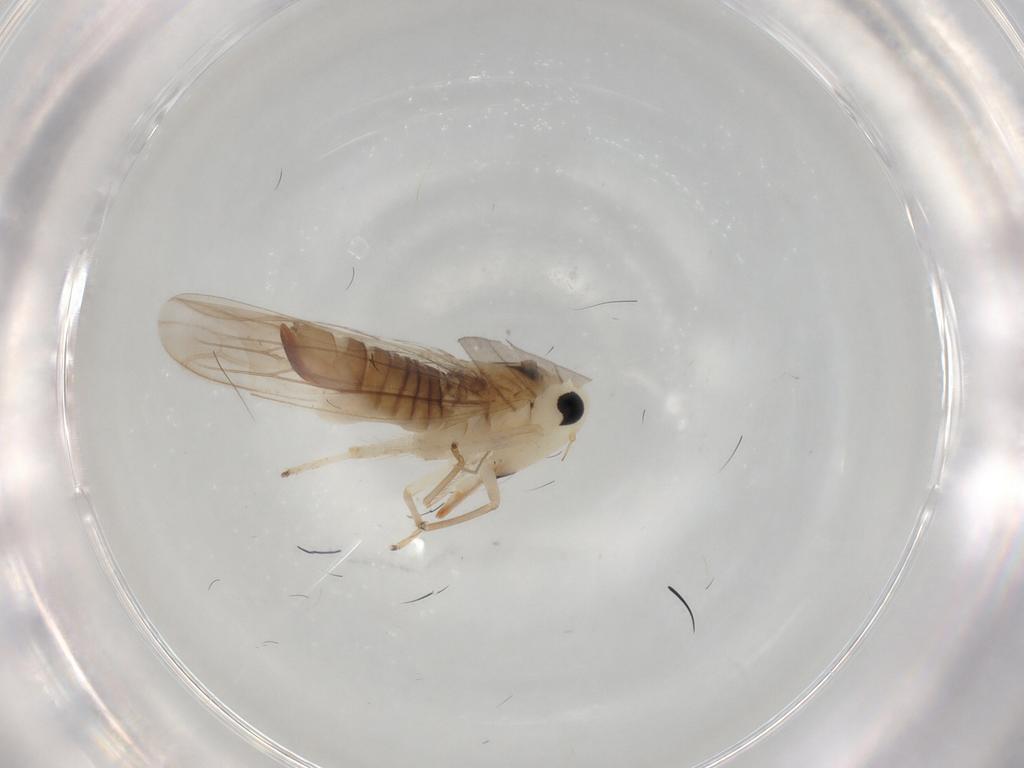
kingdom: Animalia
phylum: Arthropoda
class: Insecta
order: Hemiptera
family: Cicadellidae
